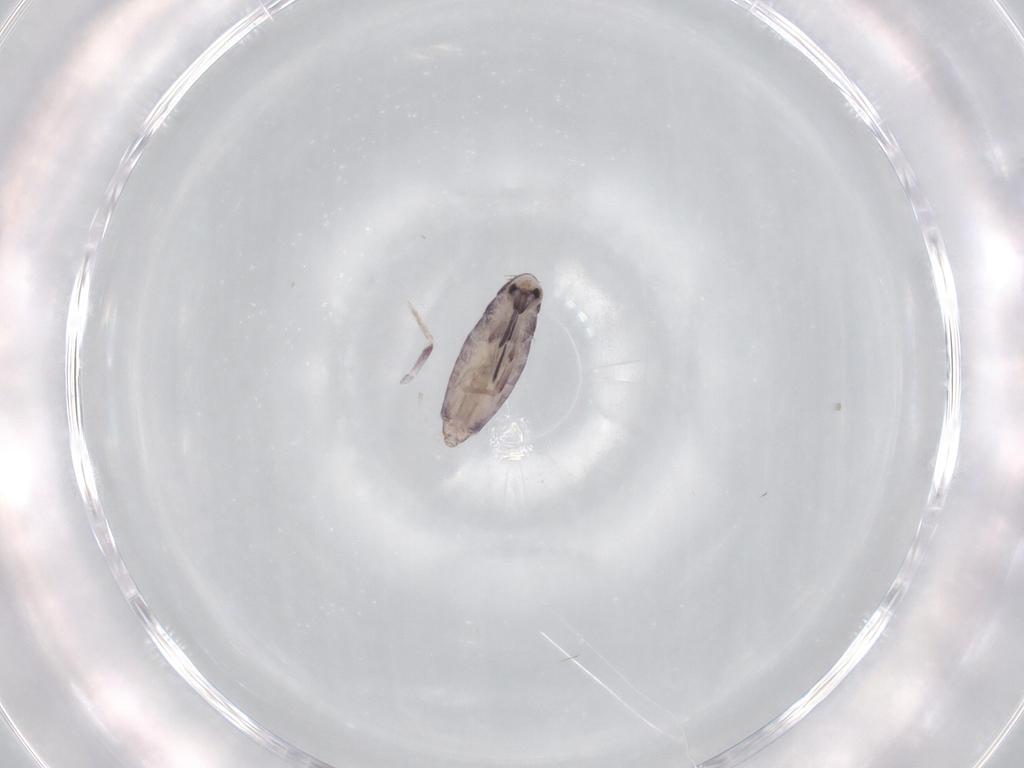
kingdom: Animalia
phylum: Arthropoda
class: Collembola
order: Poduromorpha
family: Hypogastruridae
